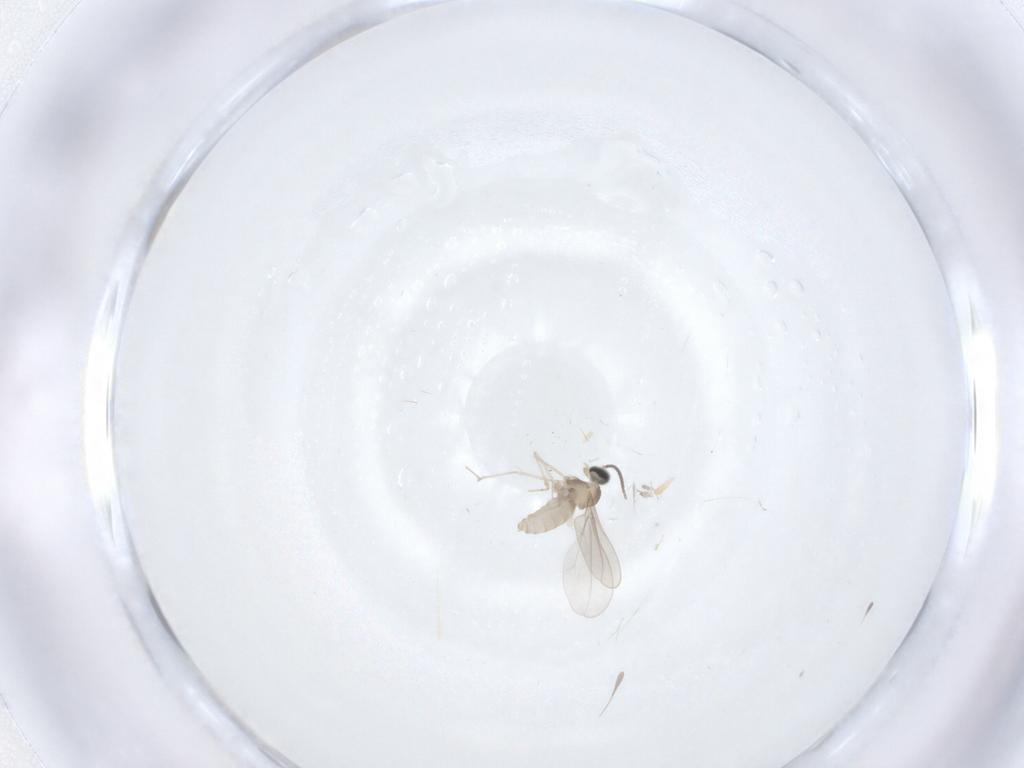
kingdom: Animalia
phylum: Arthropoda
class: Insecta
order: Diptera
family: Cecidomyiidae
